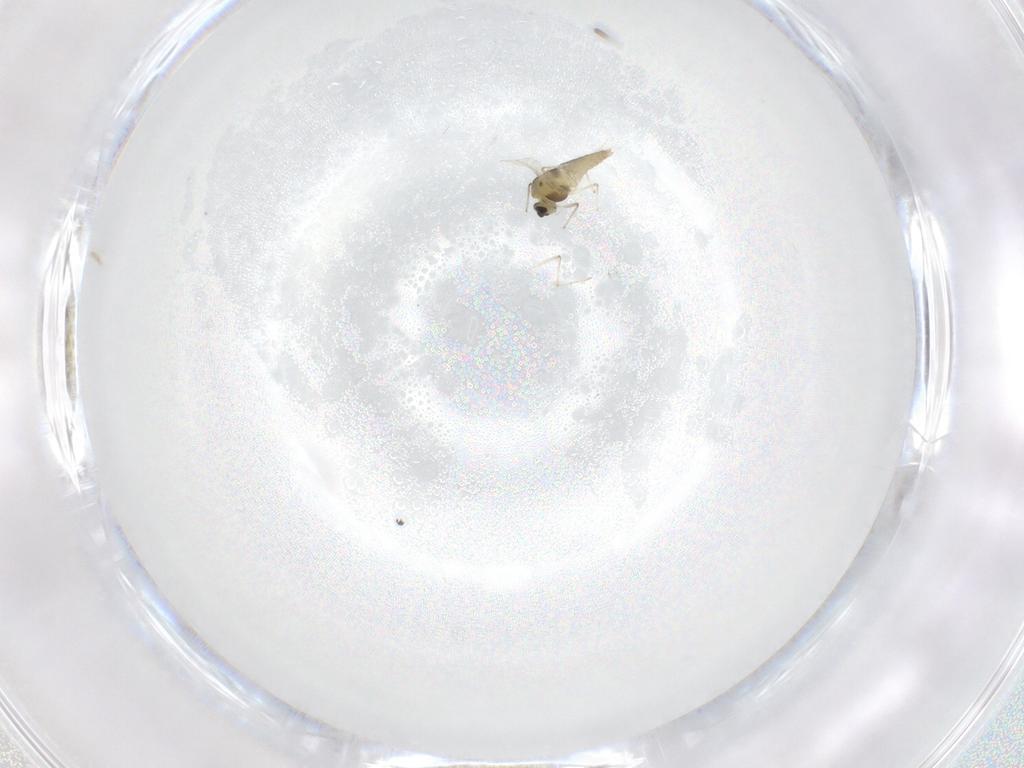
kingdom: Animalia
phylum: Arthropoda
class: Insecta
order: Diptera
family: Chironomidae
